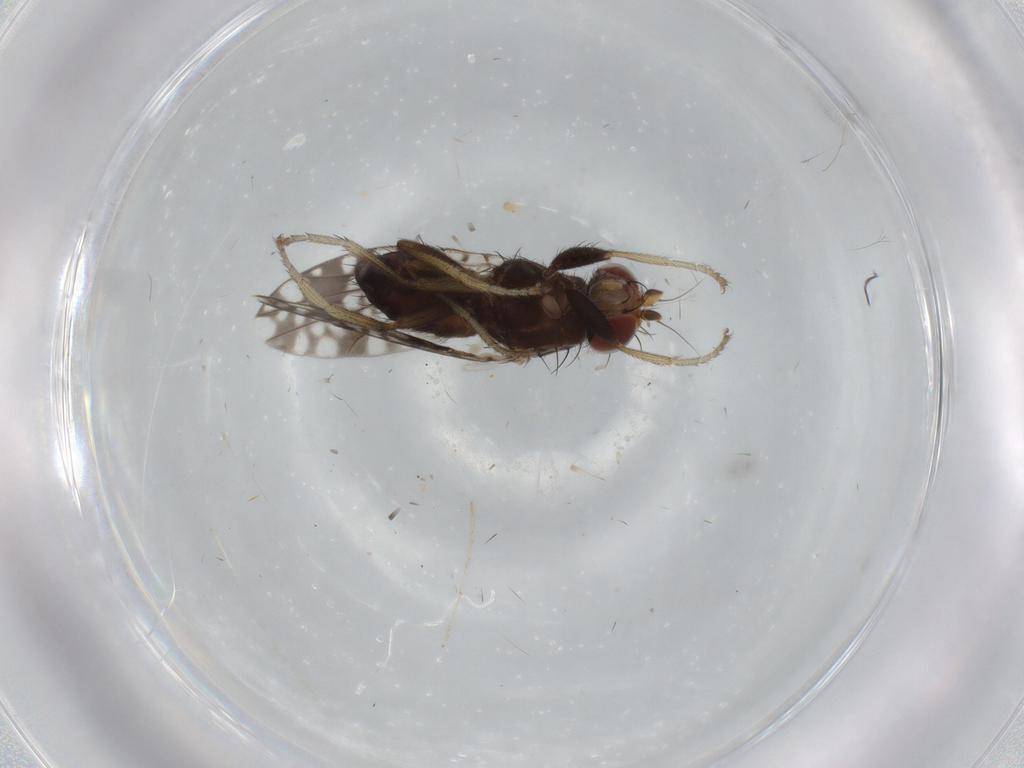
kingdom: Animalia
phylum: Arthropoda
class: Insecta
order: Diptera
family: Tephritidae
